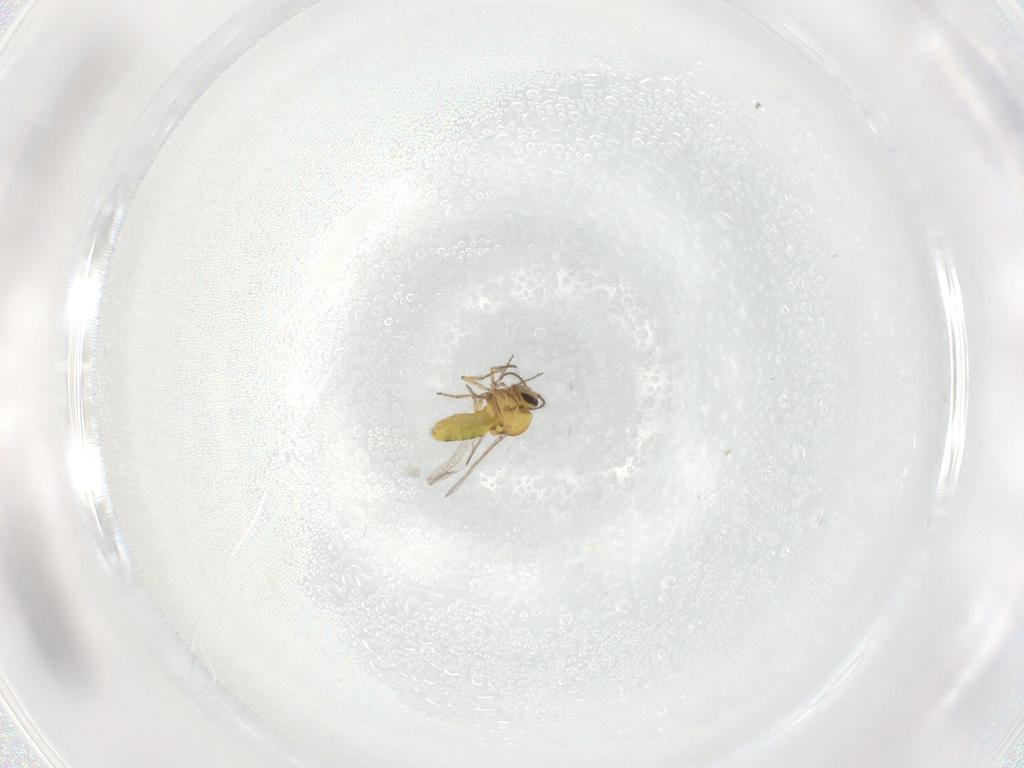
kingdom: Animalia
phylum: Arthropoda
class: Insecta
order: Diptera
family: Ceratopogonidae
